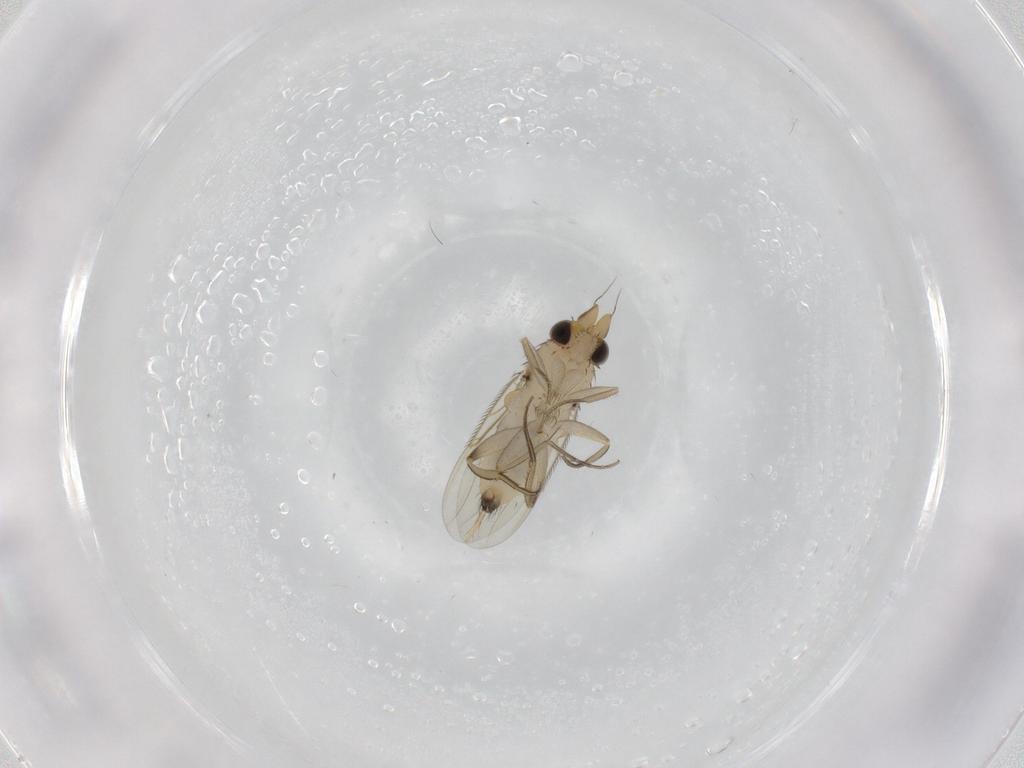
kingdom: Animalia
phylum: Arthropoda
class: Insecta
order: Diptera
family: Phoridae
